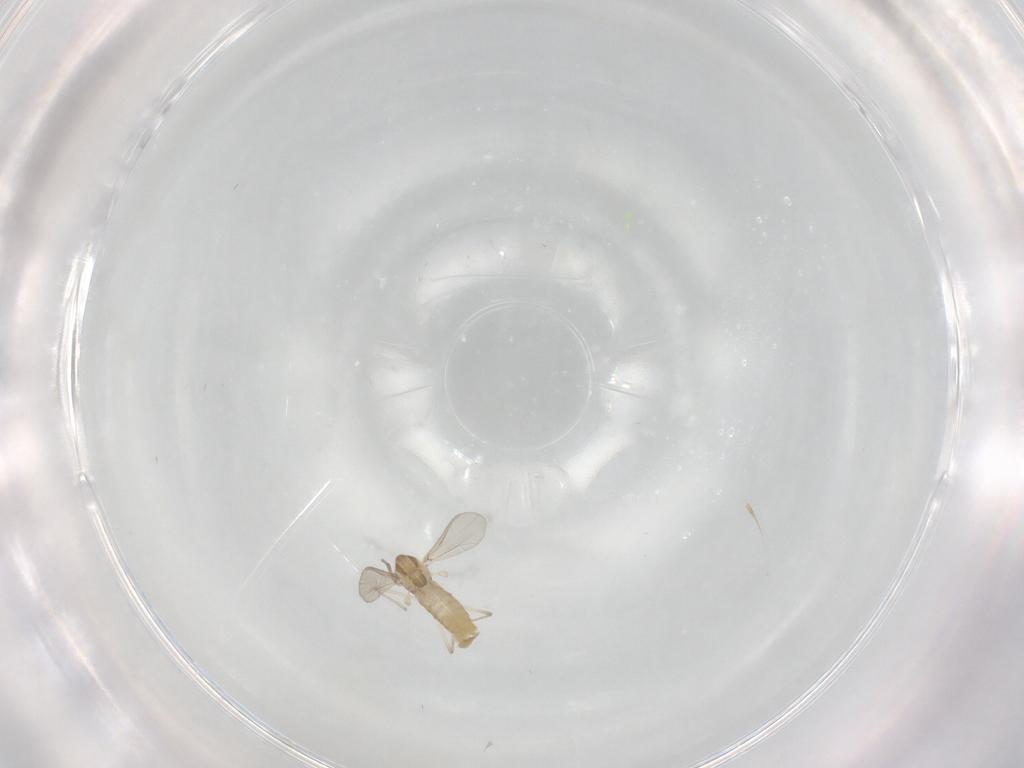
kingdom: Animalia
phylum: Arthropoda
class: Insecta
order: Diptera
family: Chironomidae
